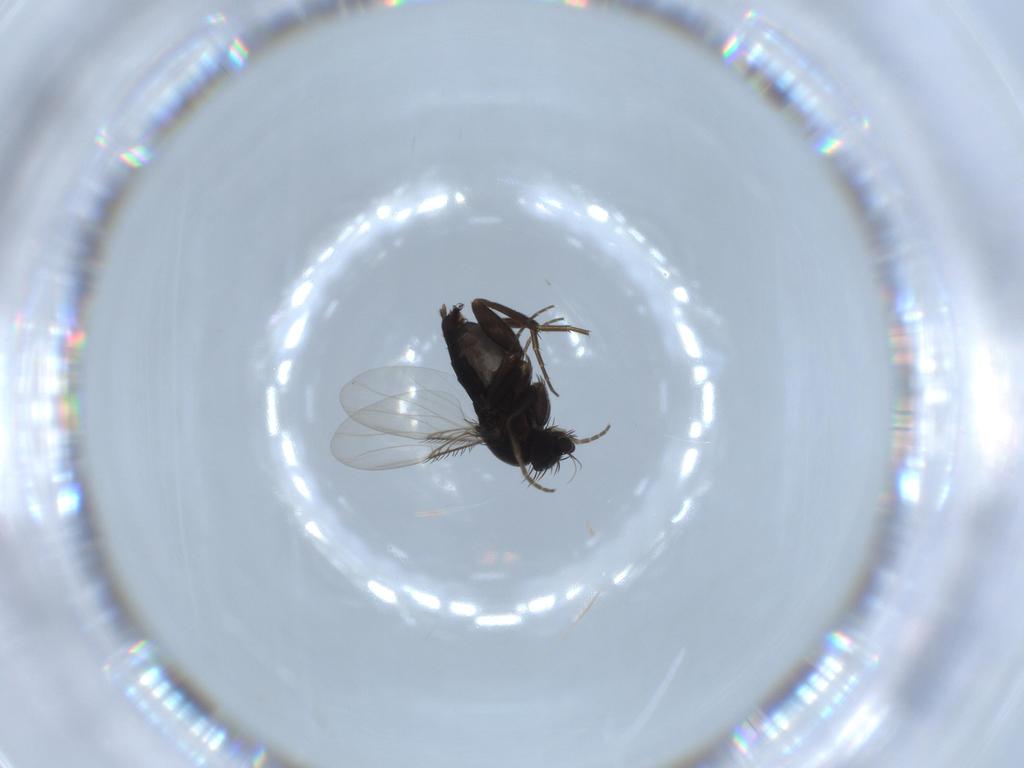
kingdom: Animalia
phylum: Arthropoda
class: Insecta
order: Diptera
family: Phoridae
